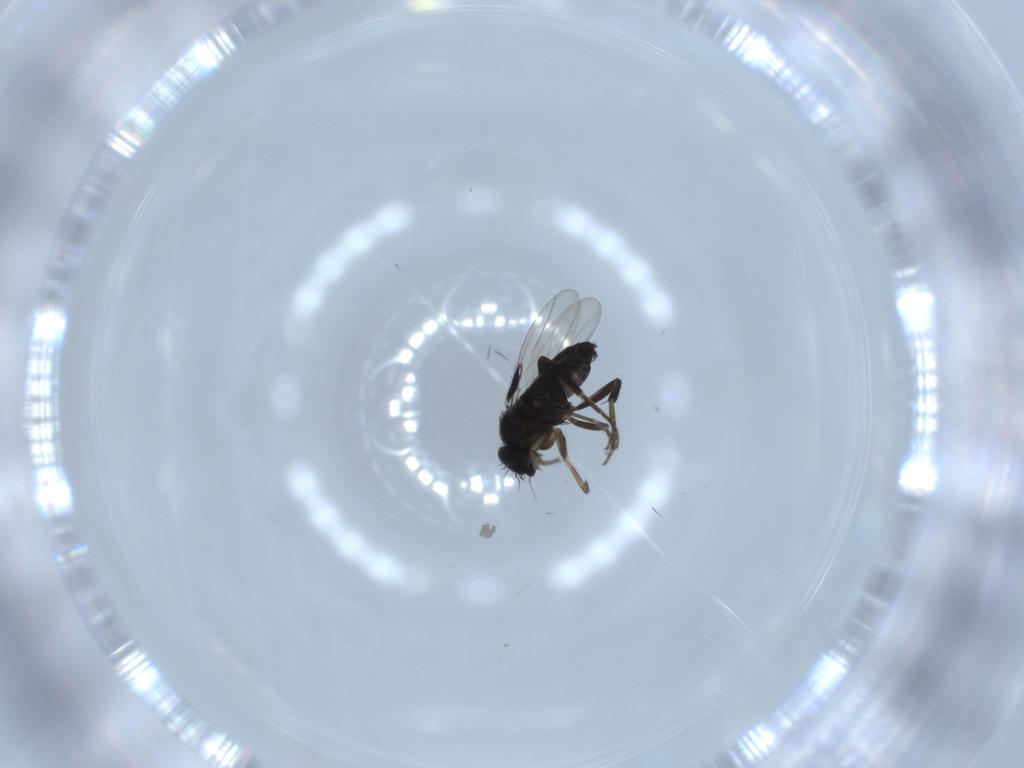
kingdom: Animalia
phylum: Arthropoda
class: Insecta
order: Diptera
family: Phoridae
